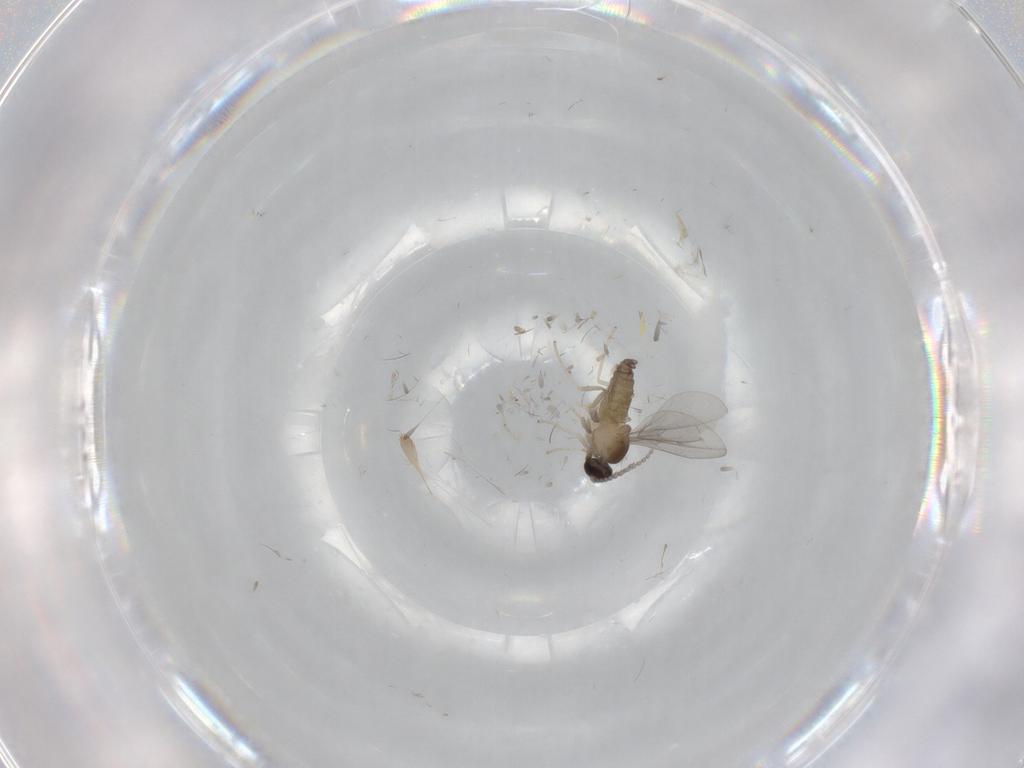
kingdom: Animalia
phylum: Arthropoda
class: Insecta
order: Diptera
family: Cecidomyiidae
